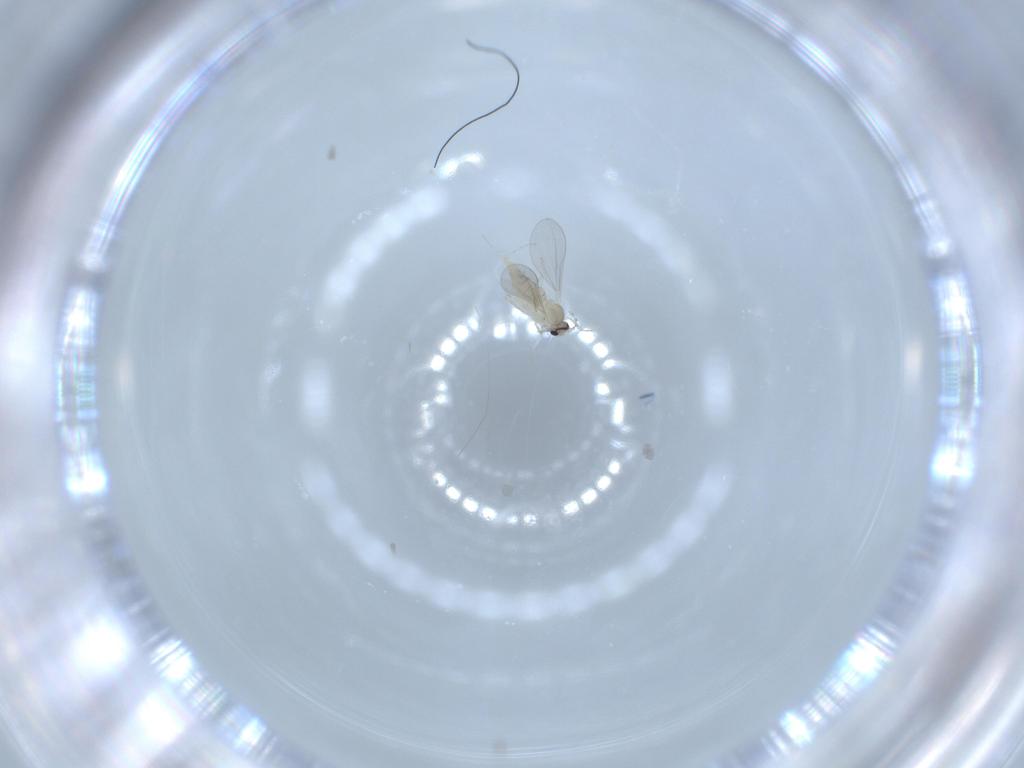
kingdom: Animalia
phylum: Arthropoda
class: Insecta
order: Diptera
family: Cecidomyiidae
